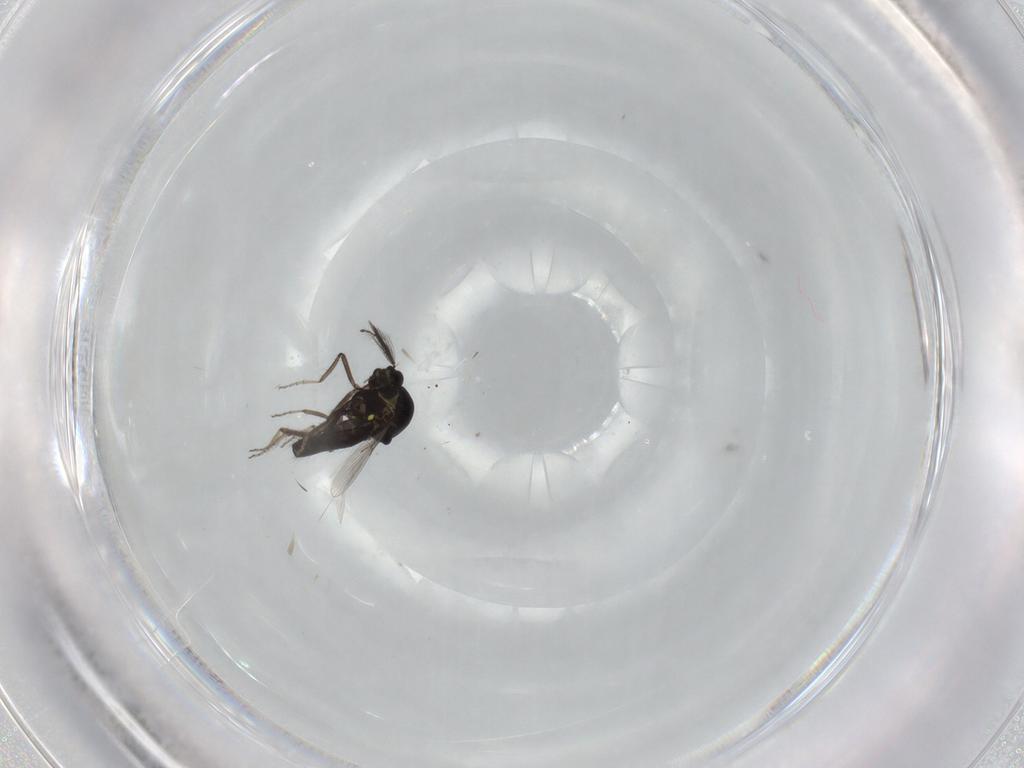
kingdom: Animalia
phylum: Arthropoda
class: Insecta
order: Diptera
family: Ceratopogonidae
